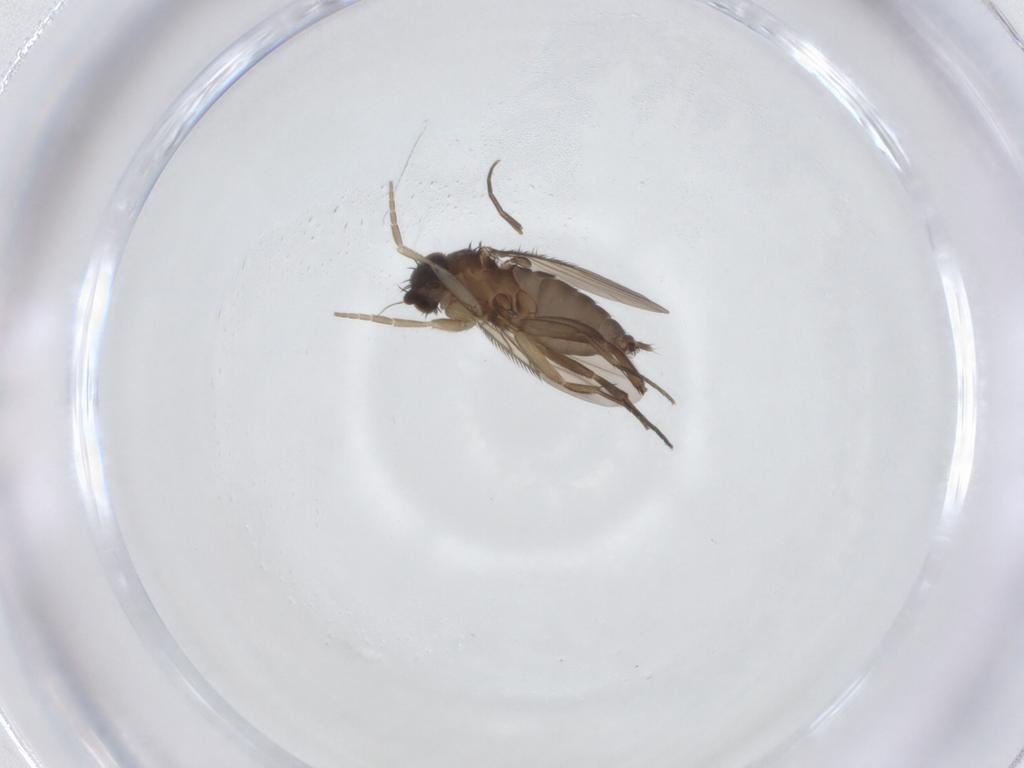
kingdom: Animalia
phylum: Arthropoda
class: Insecta
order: Diptera
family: Phoridae
